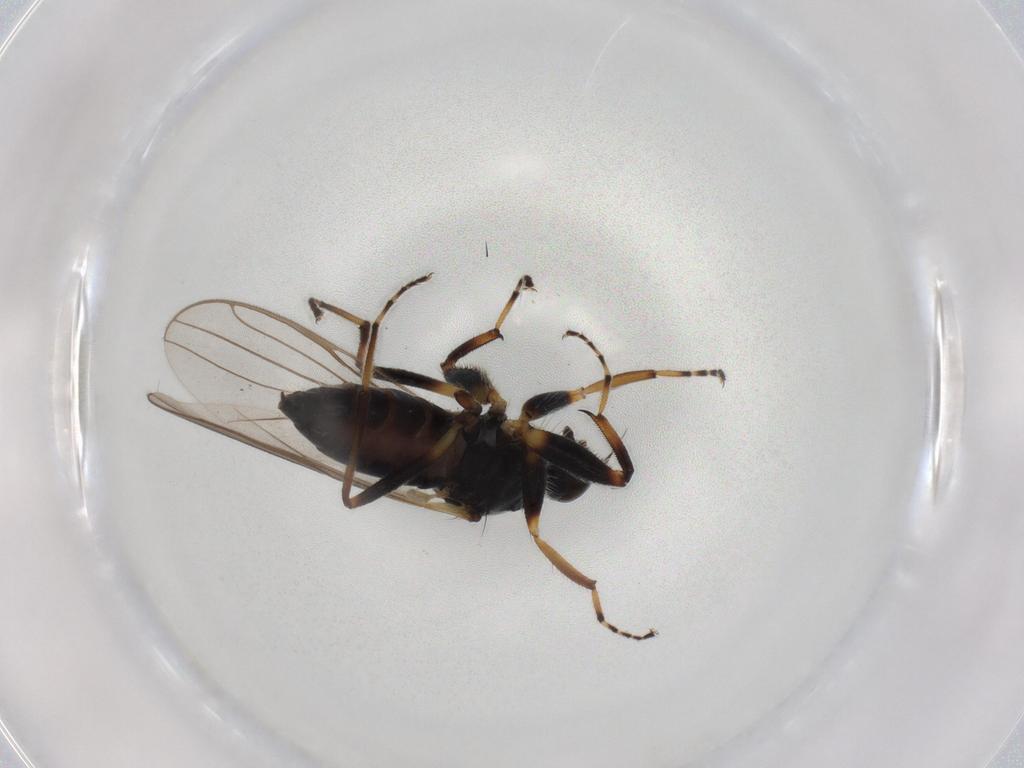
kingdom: Animalia
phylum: Arthropoda
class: Insecta
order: Diptera
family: Hybotidae
